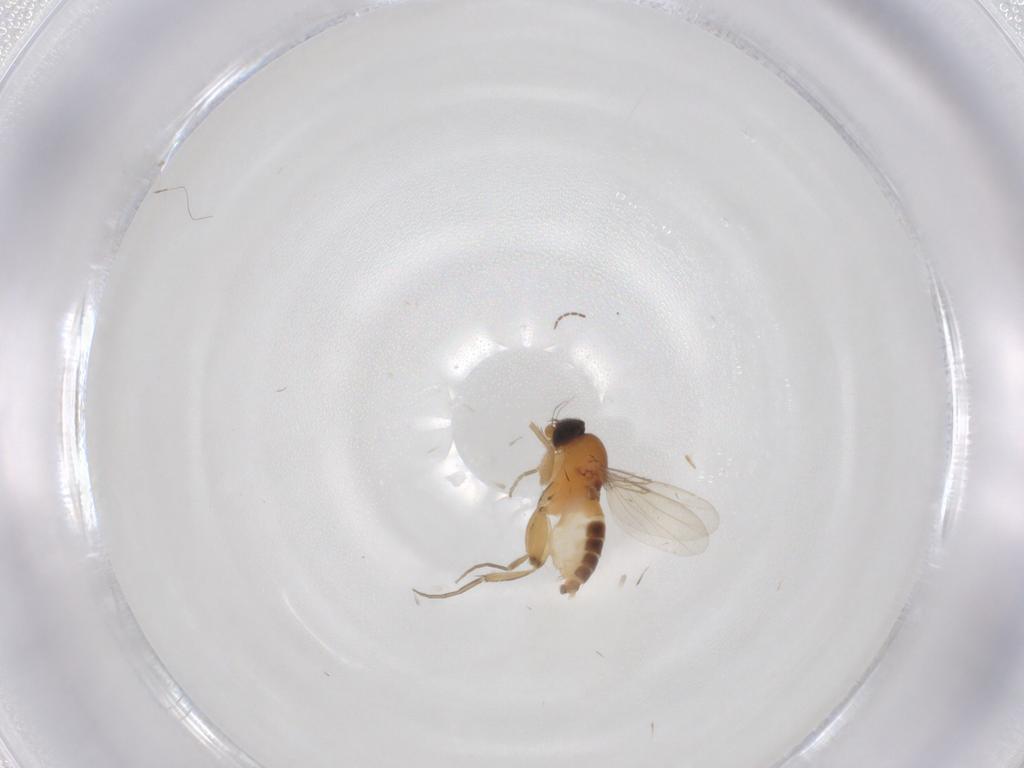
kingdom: Animalia
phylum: Arthropoda
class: Insecta
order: Diptera
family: Phoridae
